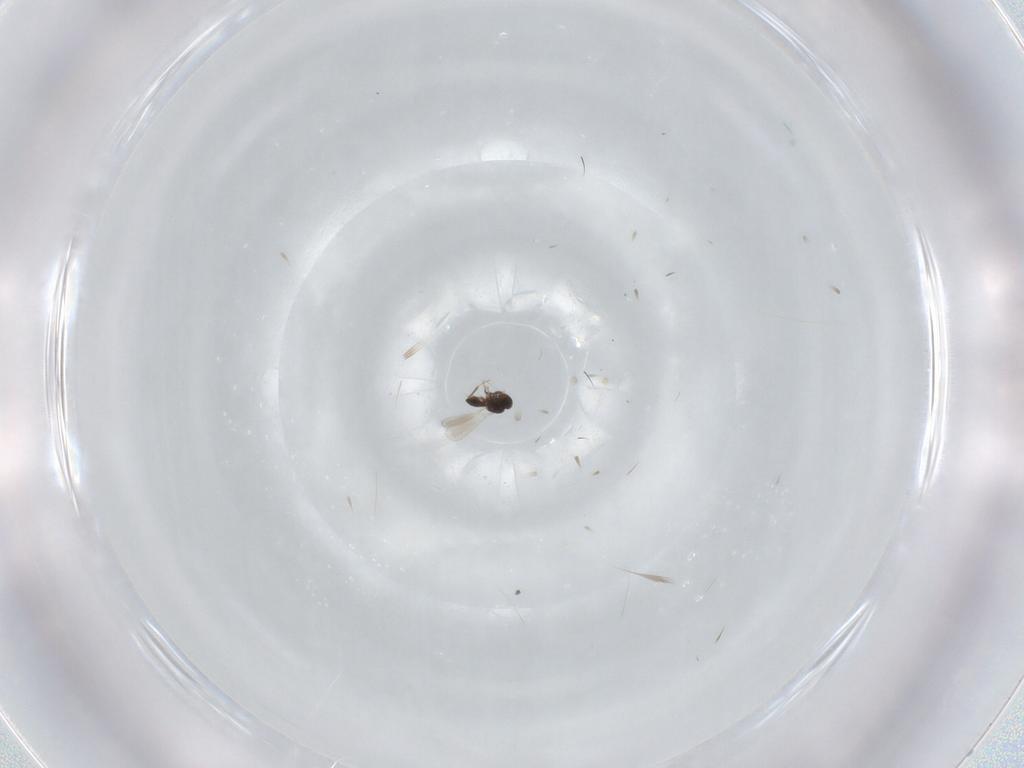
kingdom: Animalia
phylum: Arthropoda
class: Insecta
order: Hymenoptera
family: Platygastridae
